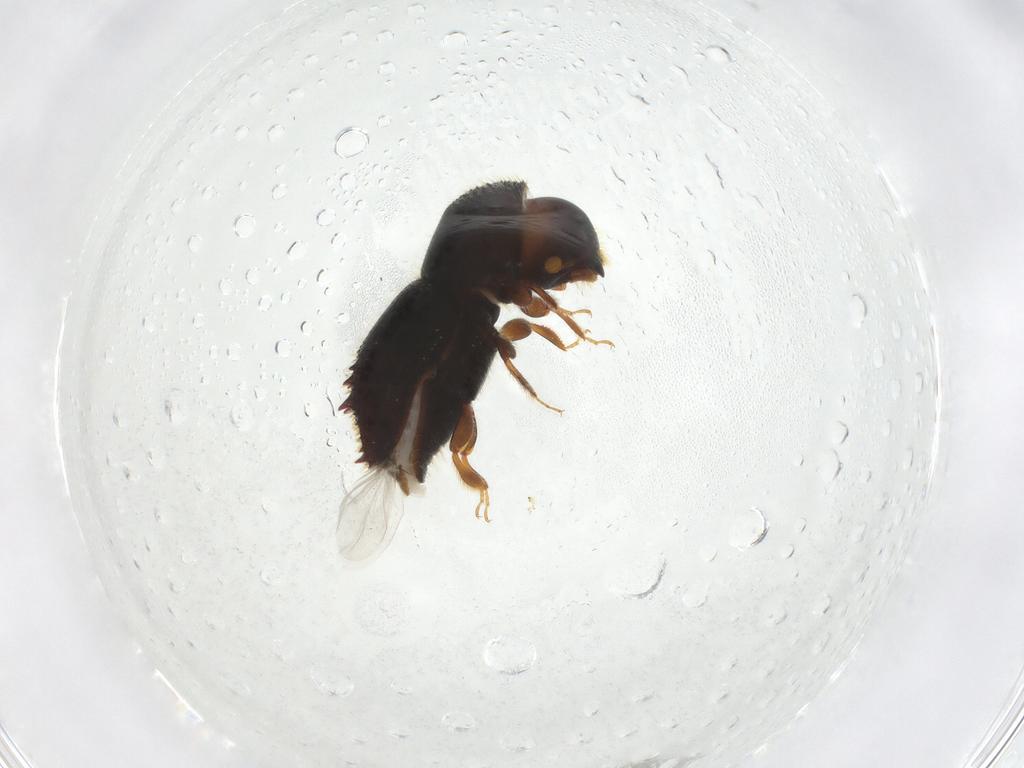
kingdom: Animalia
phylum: Arthropoda
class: Insecta
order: Coleoptera
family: Curculionidae
